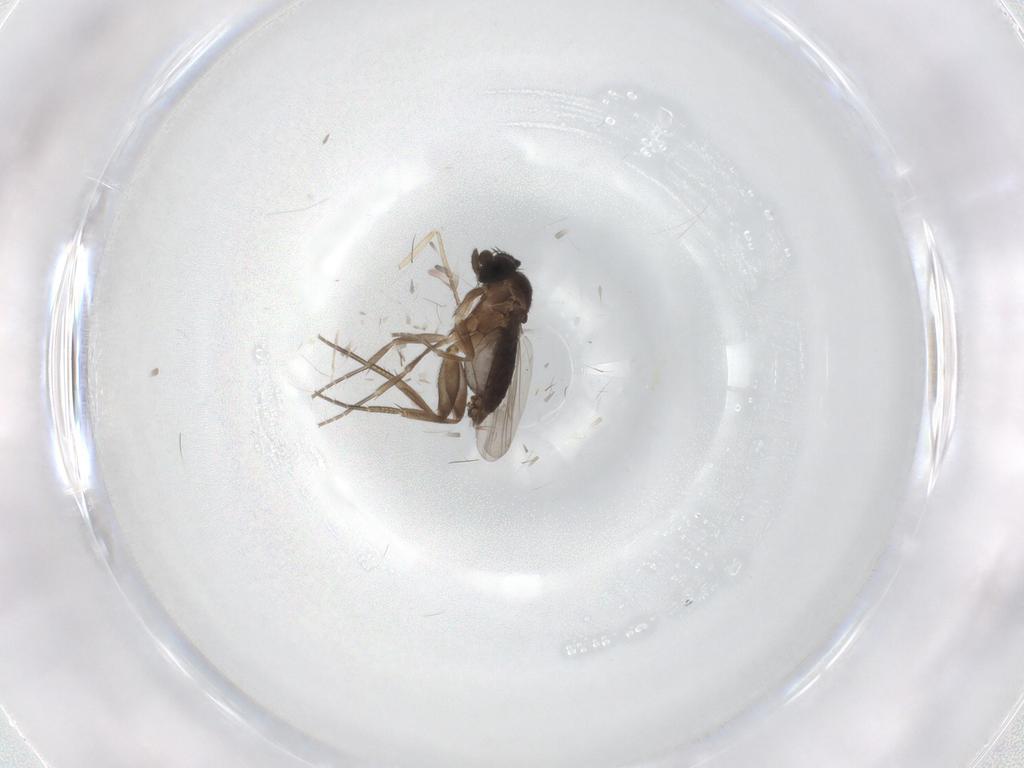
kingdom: Animalia
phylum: Arthropoda
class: Insecta
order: Diptera
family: Phoridae
